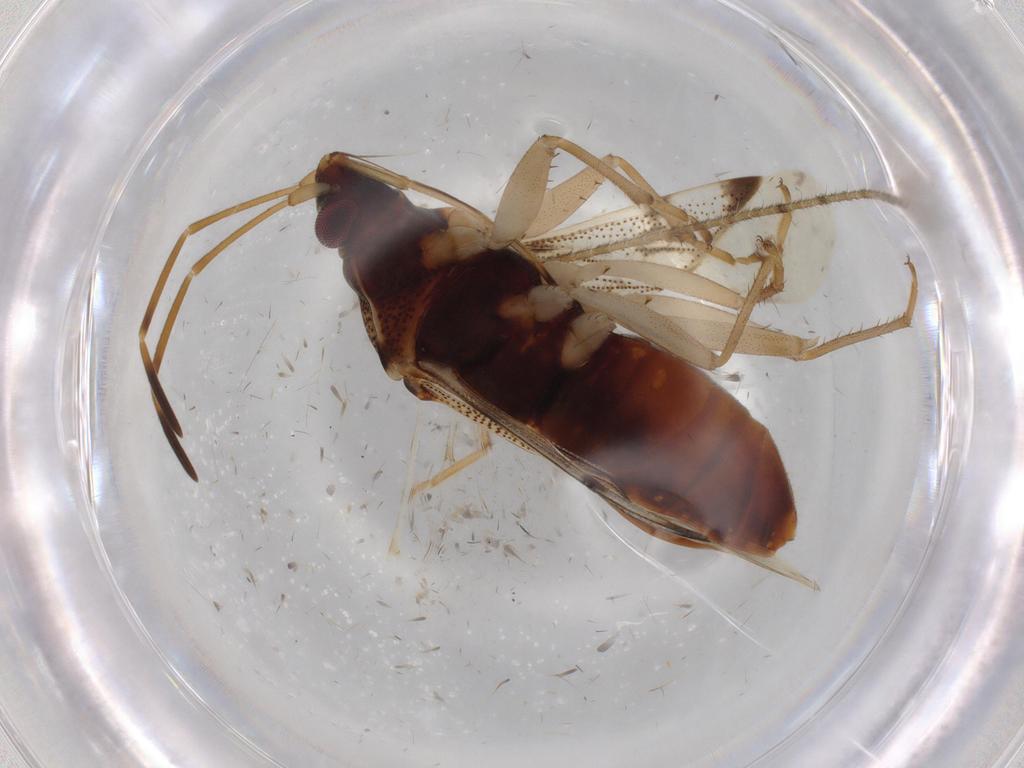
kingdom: Animalia
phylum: Arthropoda
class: Insecta
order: Hemiptera
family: Rhyparochromidae
